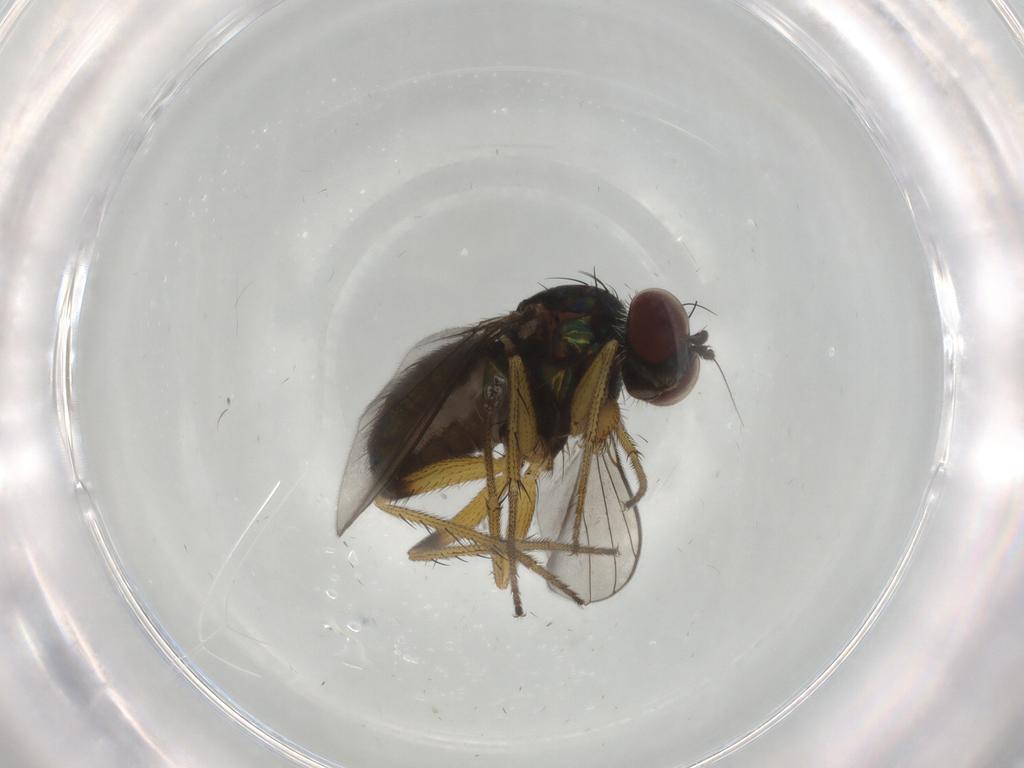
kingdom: Animalia
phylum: Arthropoda
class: Insecta
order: Diptera
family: Dolichopodidae
